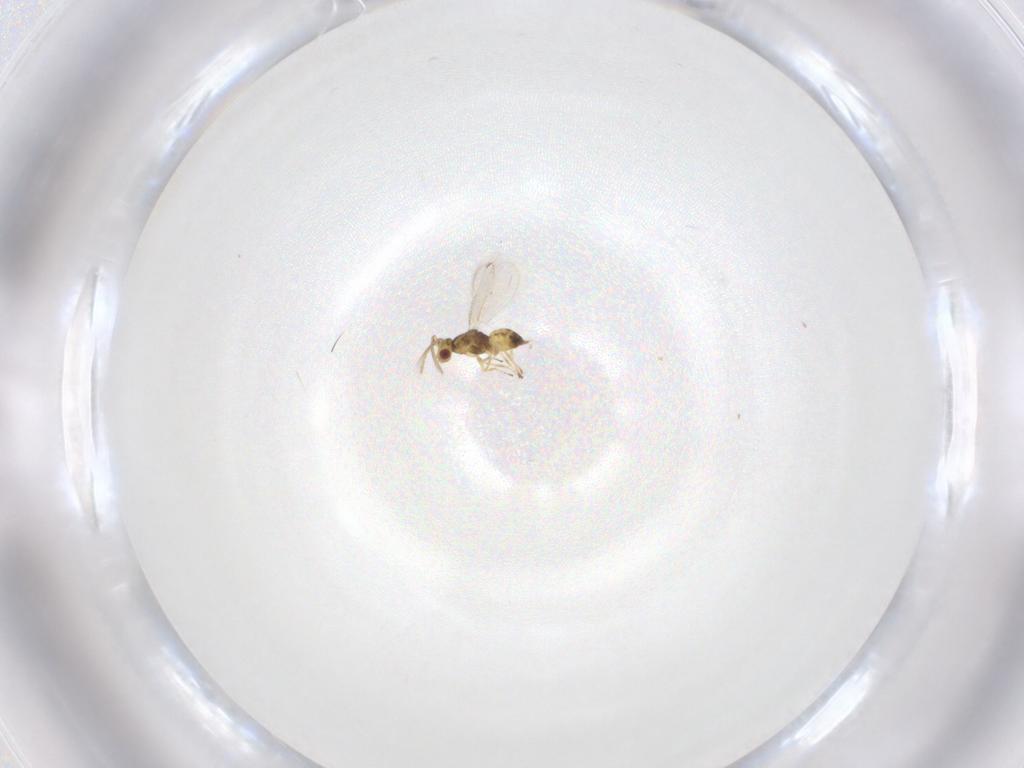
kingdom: Animalia
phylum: Arthropoda
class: Insecta
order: Hymenoptera
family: Eulophidae
